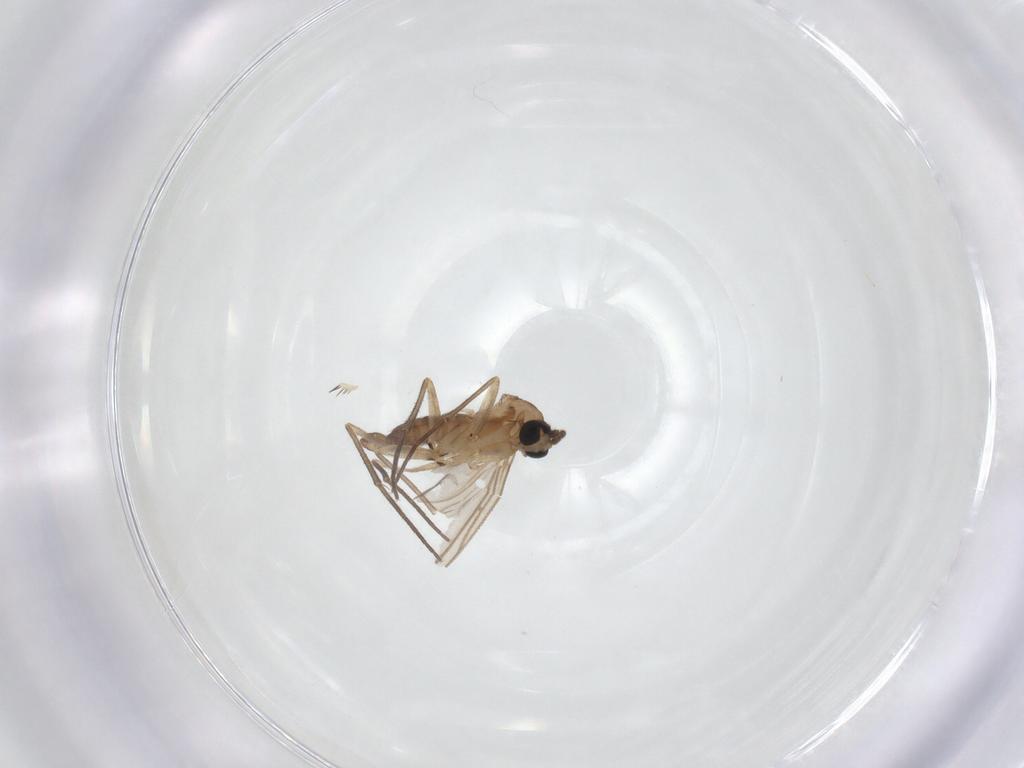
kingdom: Animalia
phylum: Arthropoda
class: Insecta
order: Diptera
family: Sciaridae
